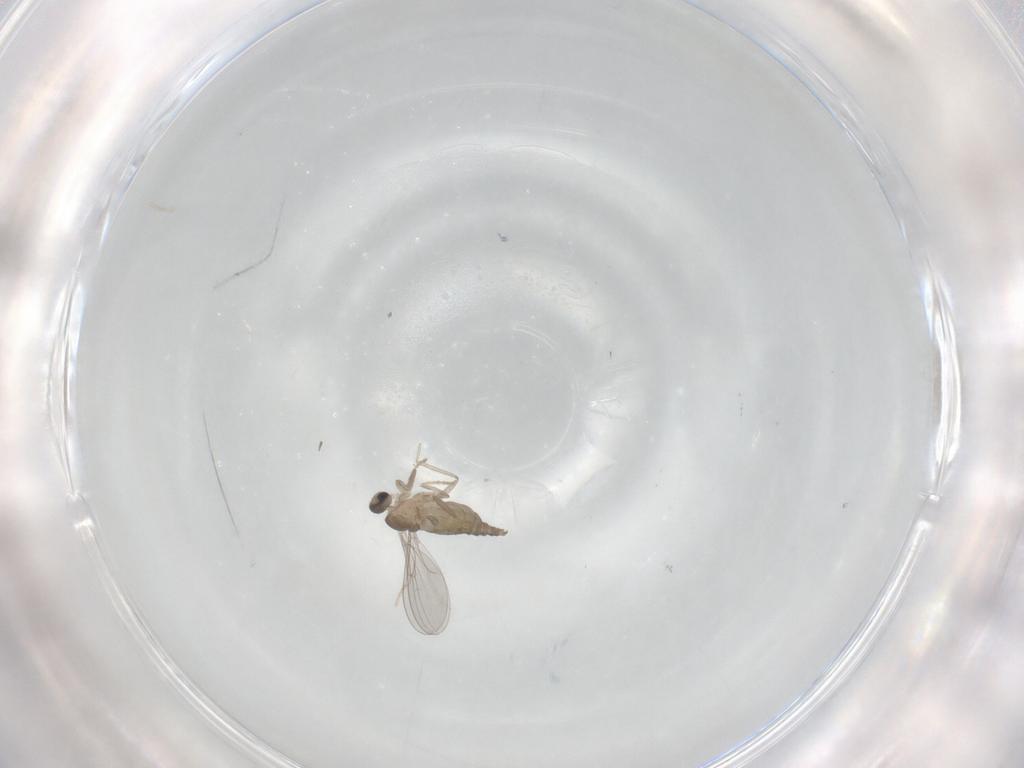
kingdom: Animalia
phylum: Arthropoda
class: Insecta
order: Diptera
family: Cecidomyiidae
